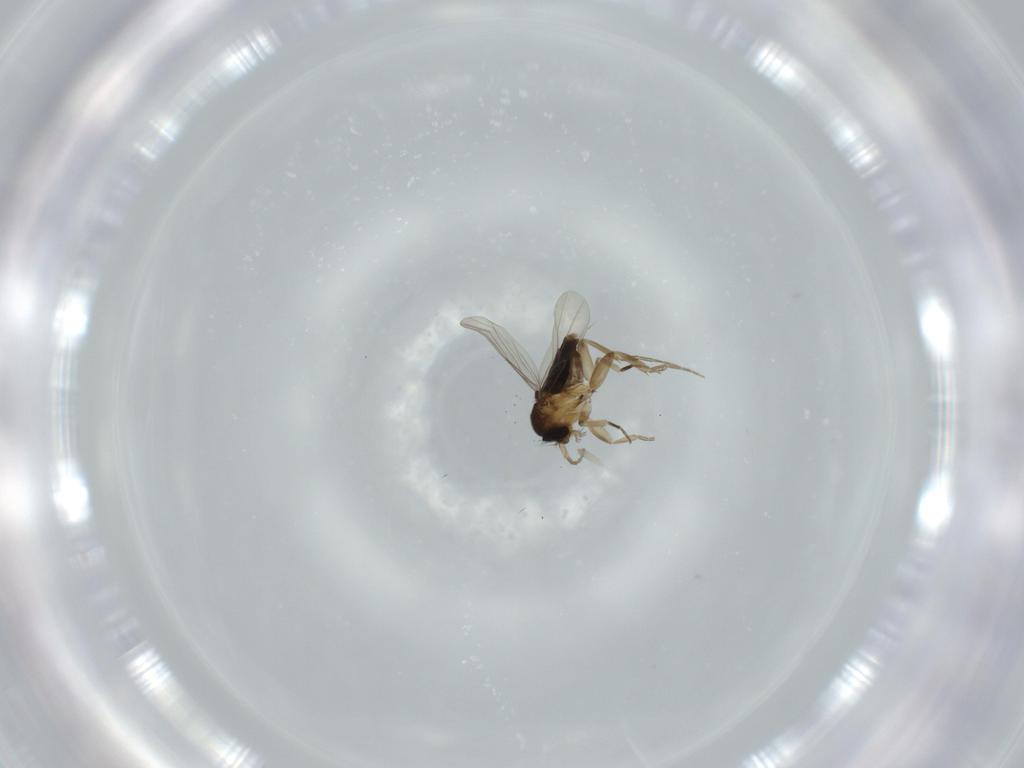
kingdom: Animalia
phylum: Arthropoda
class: Insecta
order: Diptera
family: Phoridae
